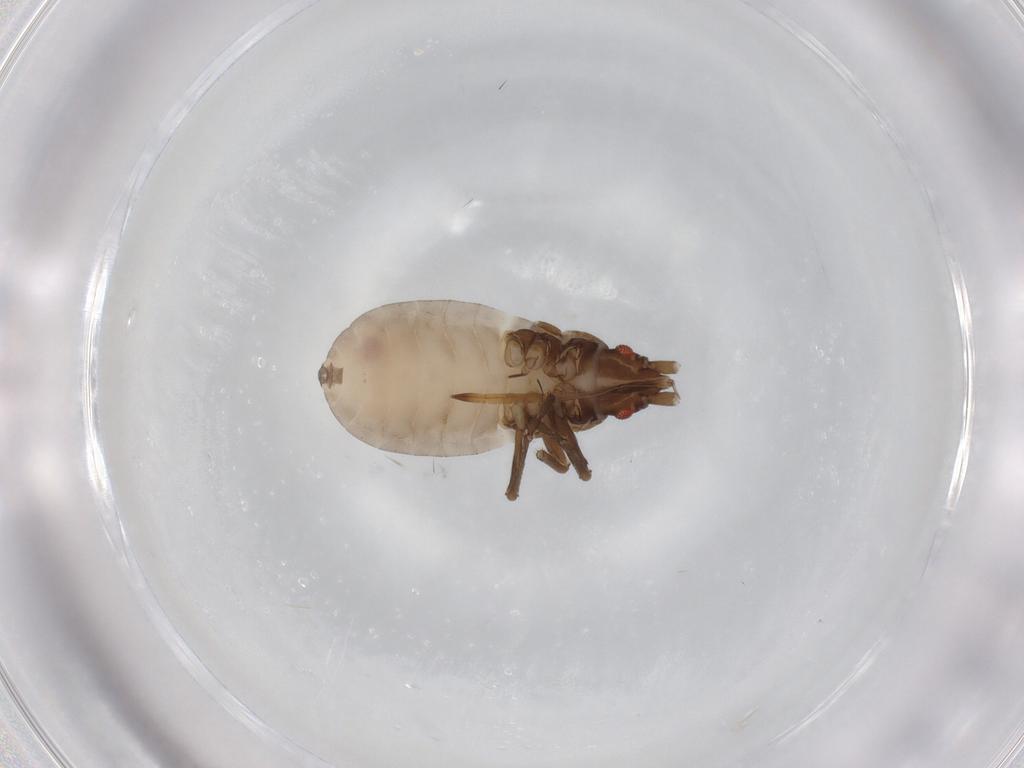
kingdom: Animalia
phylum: Arthropoda
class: Insecta
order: Hemiptera
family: Rhyparochromidae
